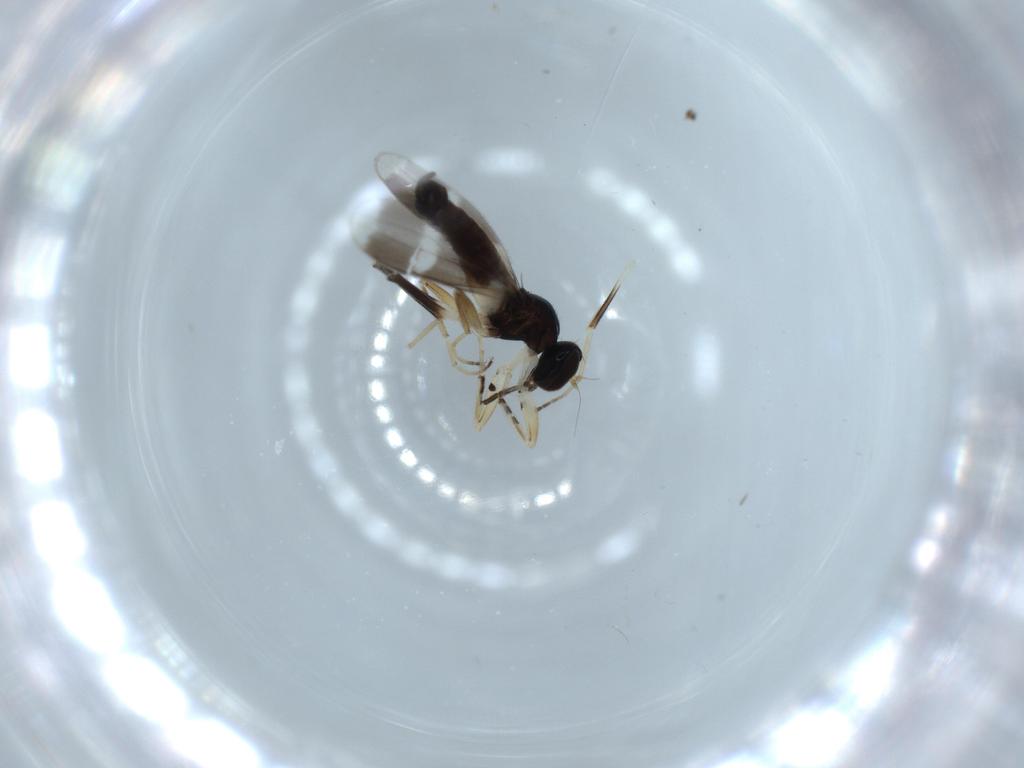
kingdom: Animalia
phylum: Arthropoda
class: Insecta
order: Diptera
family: Hybotidae
